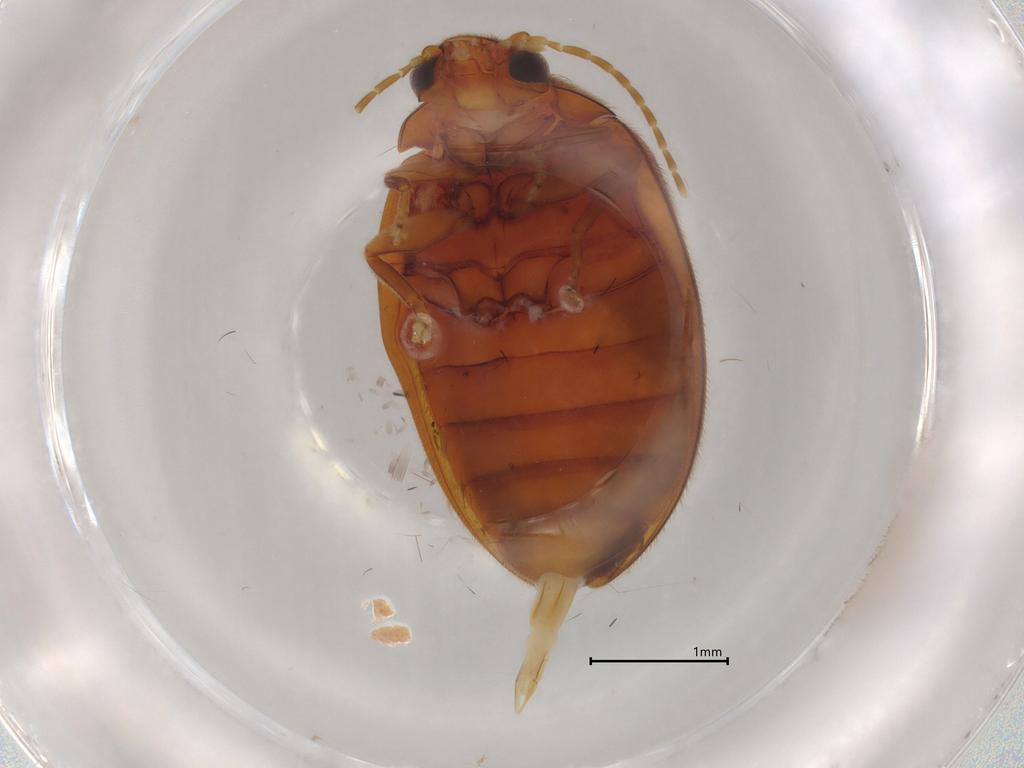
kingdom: Animalia
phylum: Arthropoda
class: Insecta
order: Coleoptera
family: Scirtidae
